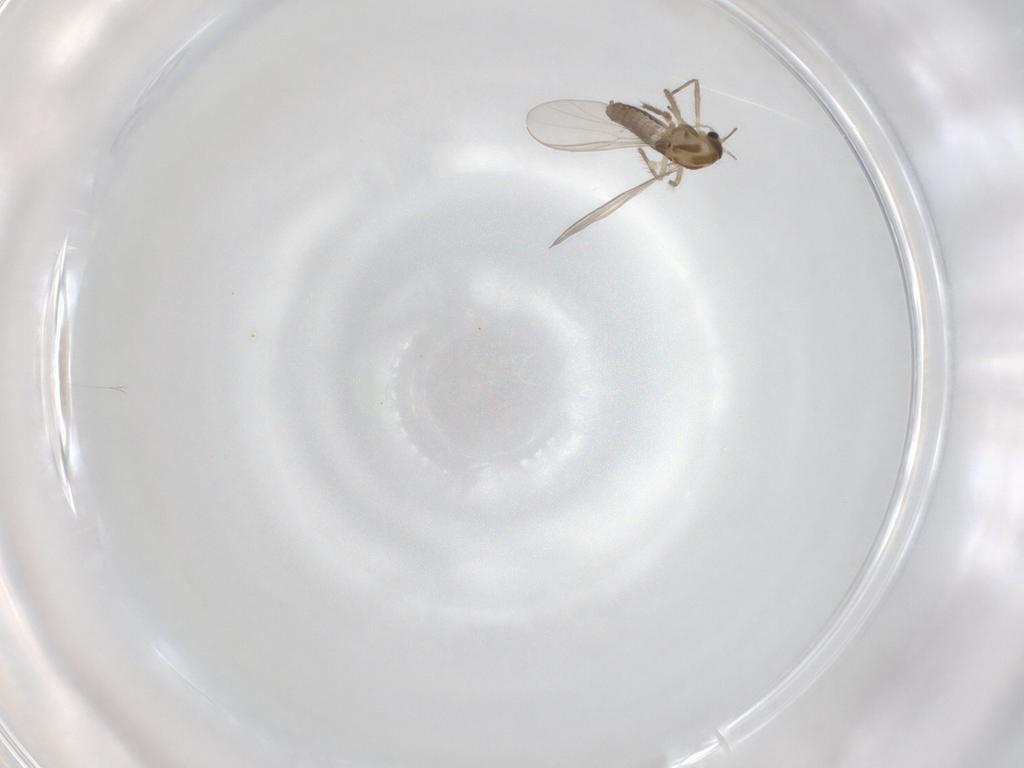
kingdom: Animalia
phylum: Arthropoda
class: Insecta
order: Diptera
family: Chironomidae
